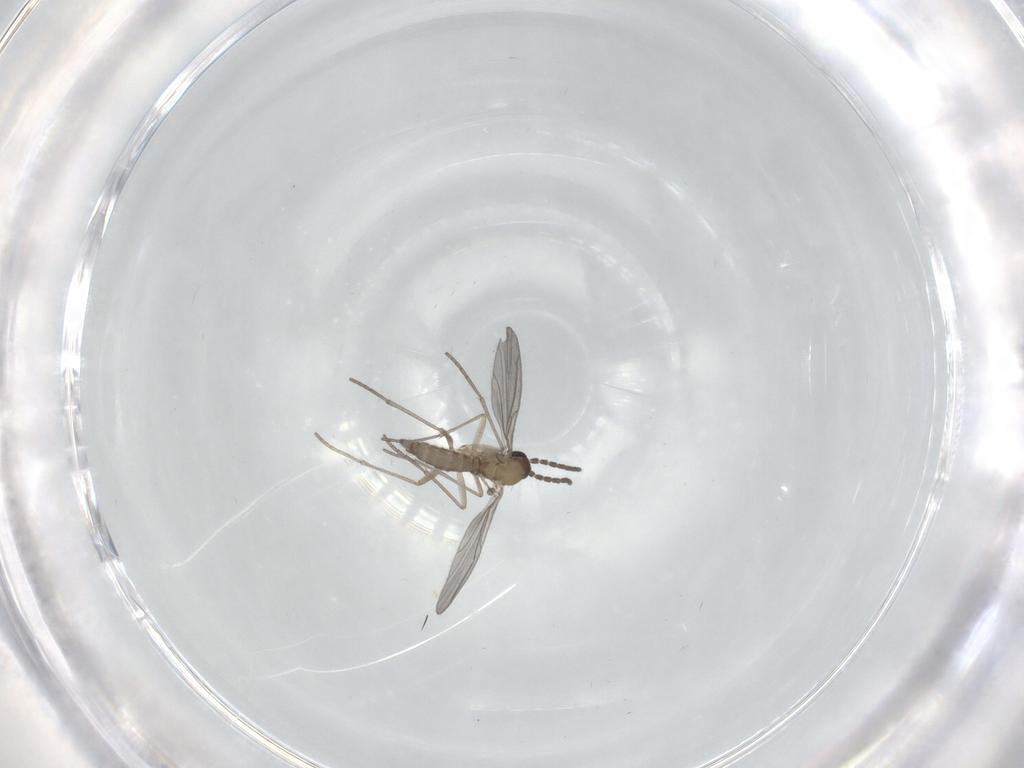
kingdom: Animalia
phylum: Arthropoda
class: Insecta
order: Diptera
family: Sciaridae
